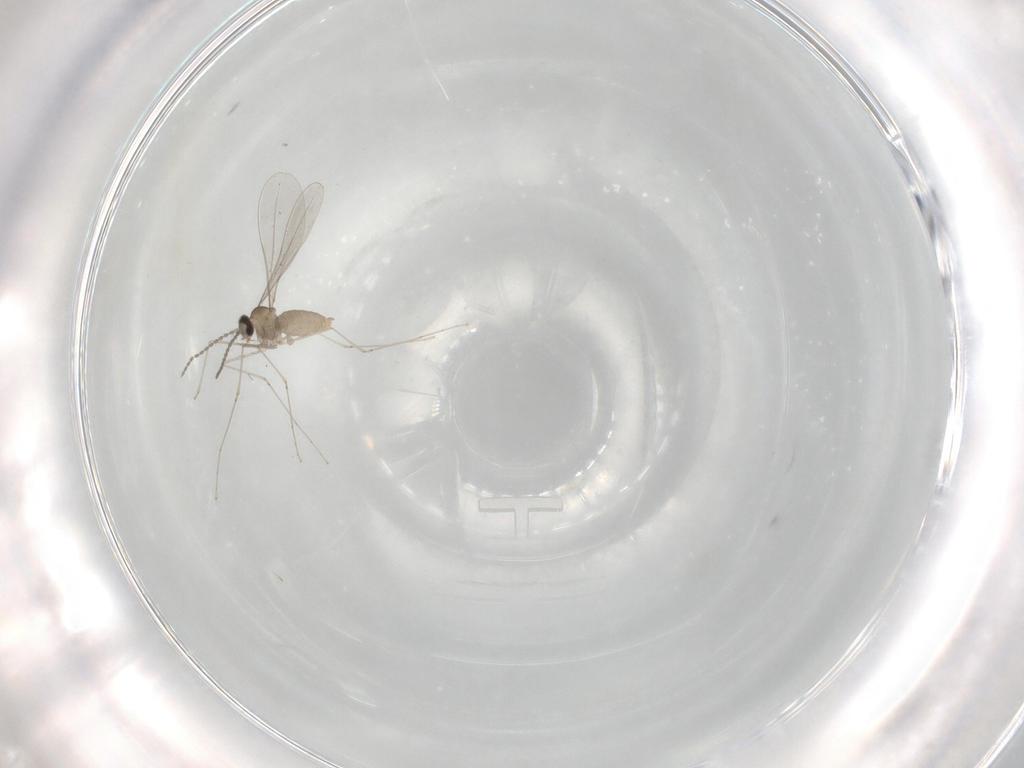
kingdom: Animalia
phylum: Arthropoda
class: Insecta
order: Diptera
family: Cecidomyiidae
